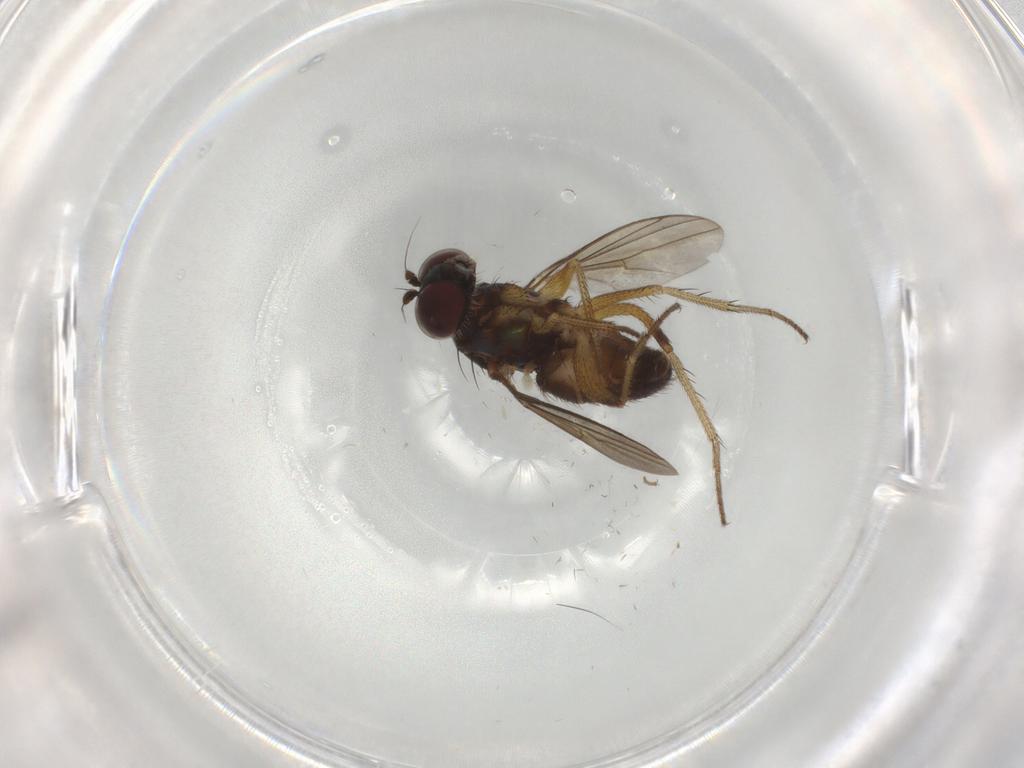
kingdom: Animalia
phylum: Arthropoda
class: Insecta
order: Diptera
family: Dolichopodidae
